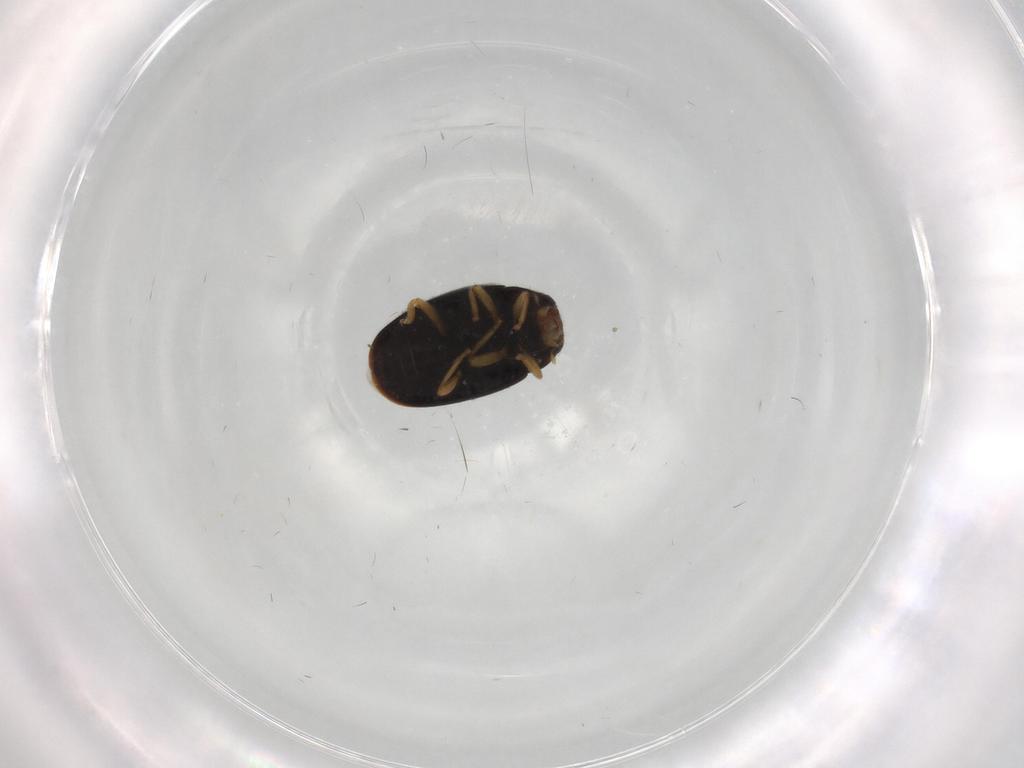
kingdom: Animalia
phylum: Arthropoda
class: Insecta
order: Coleoptera
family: Coccinellidae
